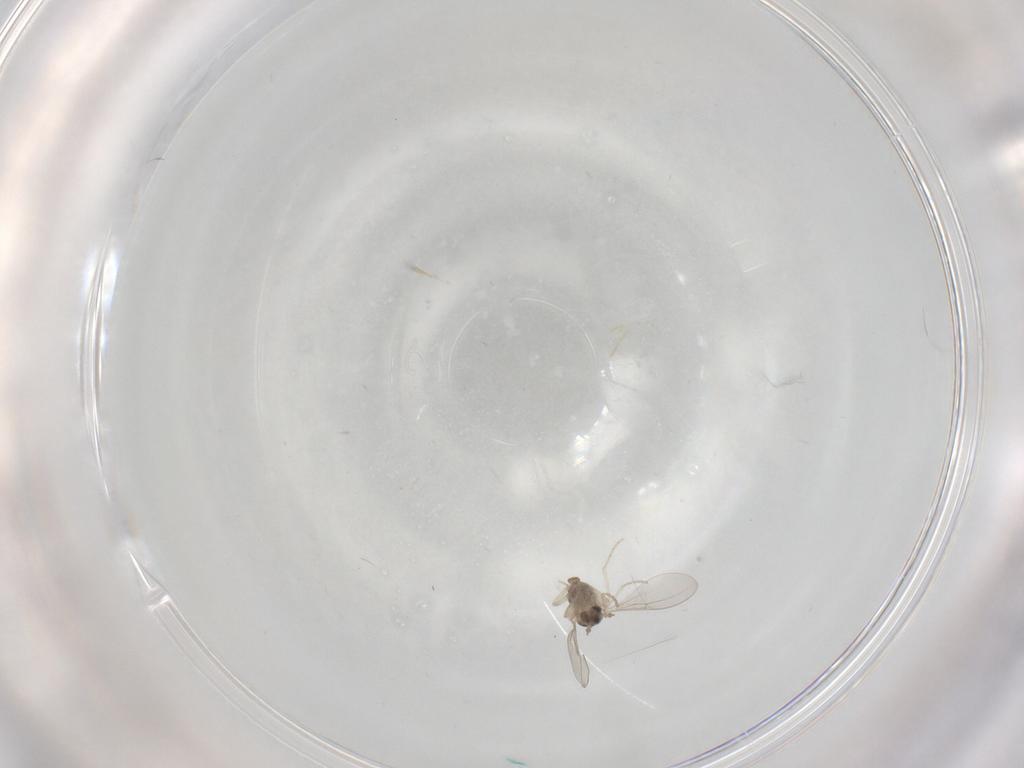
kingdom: Animalia
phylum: Arthropoda
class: Insecta
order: Diptera
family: Cecidomyiidae
